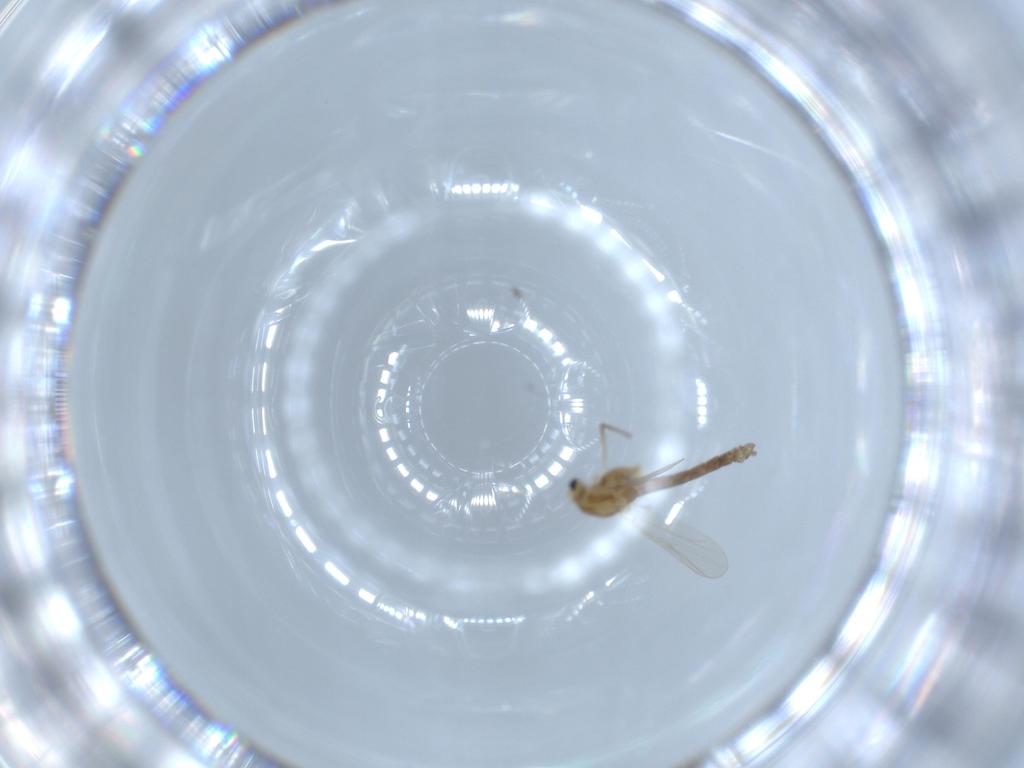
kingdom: Animalia
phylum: Arthropoda
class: Insecta
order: Diptera
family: Chironomidae
